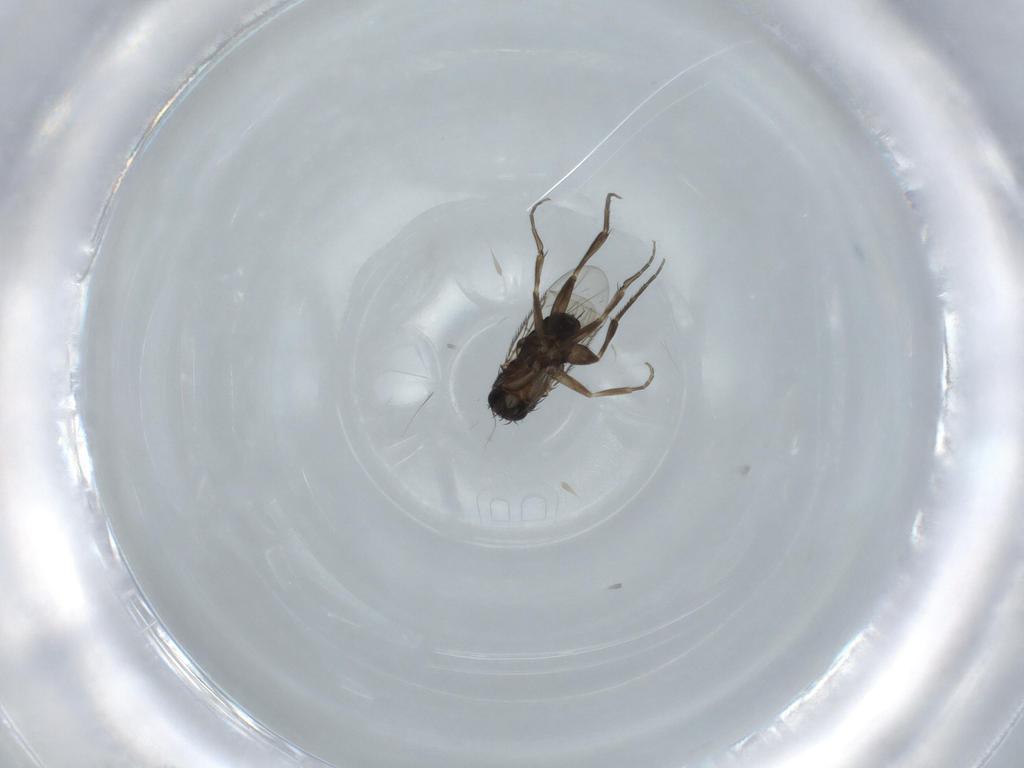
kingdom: Animalia
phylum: Arthropoda
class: Insecta
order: Diptera
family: Phoridae
